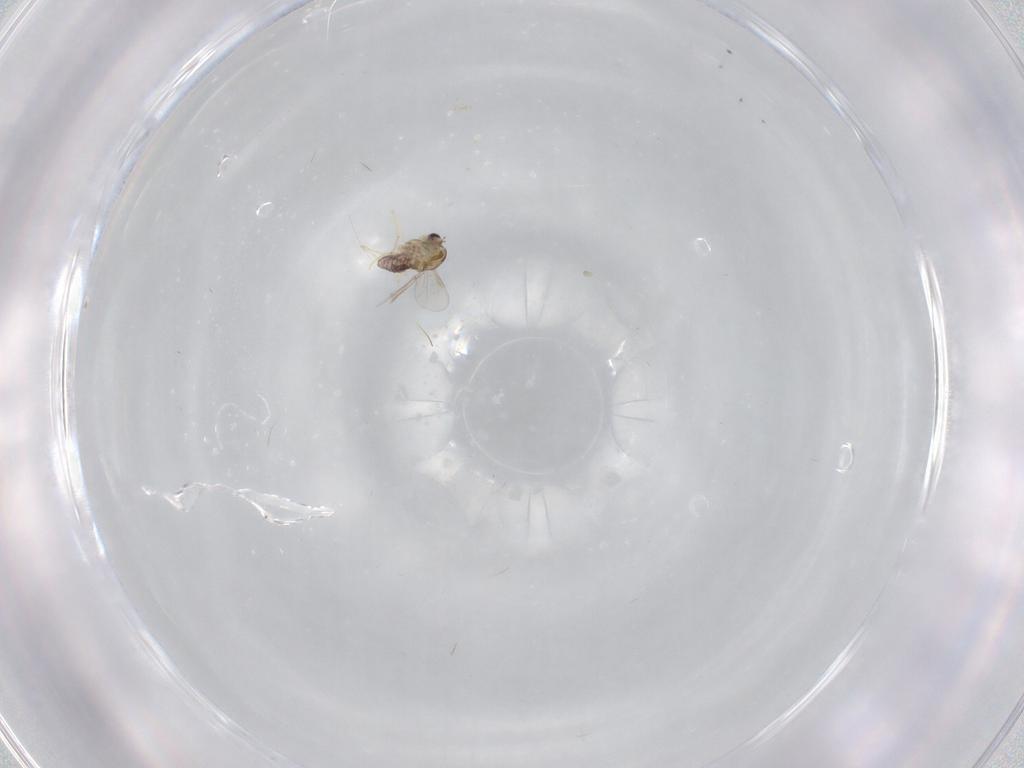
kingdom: Animalia
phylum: Arthropoda
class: Insecta
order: Diptera
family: Chironomidae
